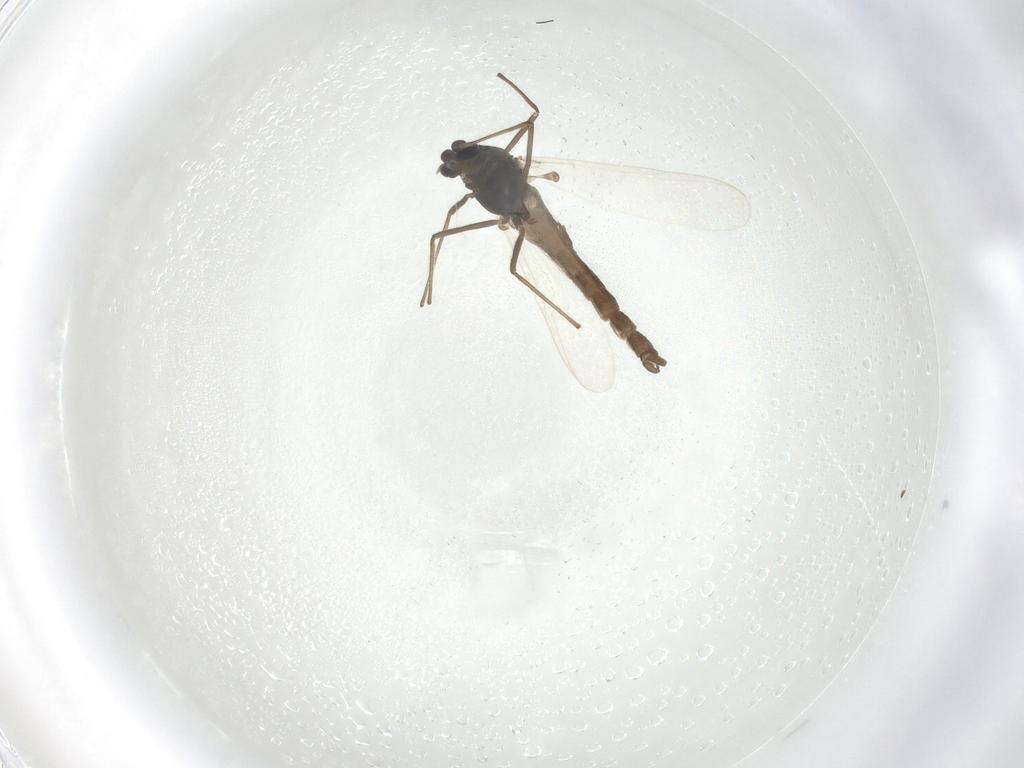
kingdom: Animalia
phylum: Arthropoda
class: Insecta
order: Diptera
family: Chironomidae
